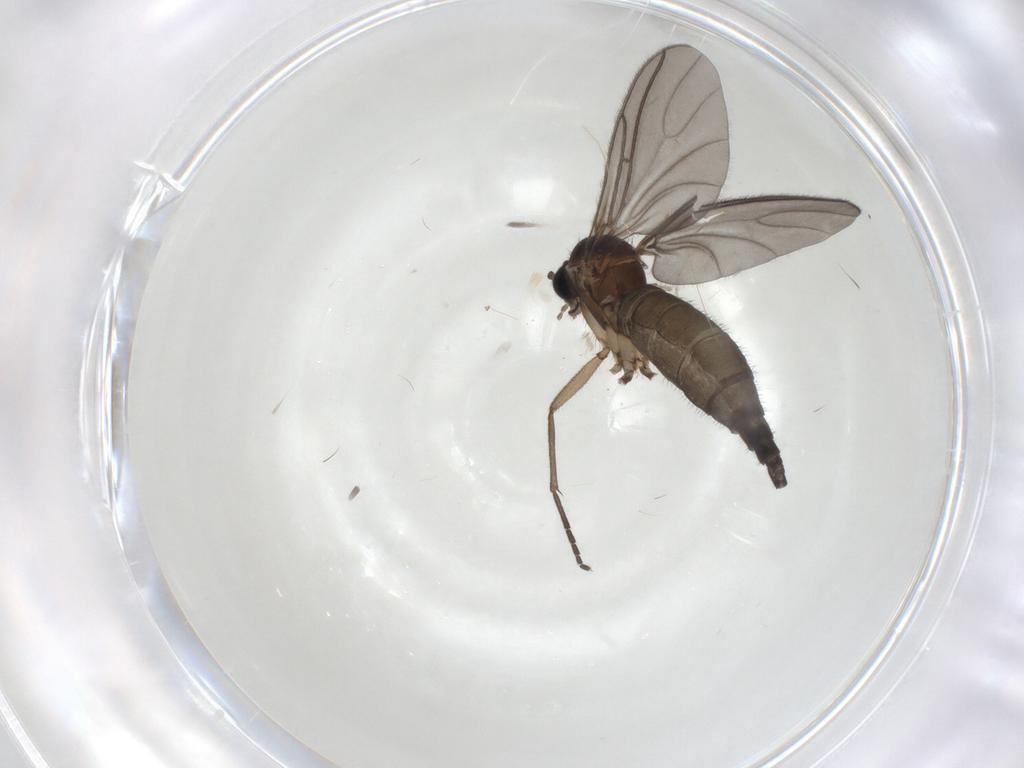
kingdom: Animalia
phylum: Arthropoda
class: Insecta
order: Diptera
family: Sciaridae
